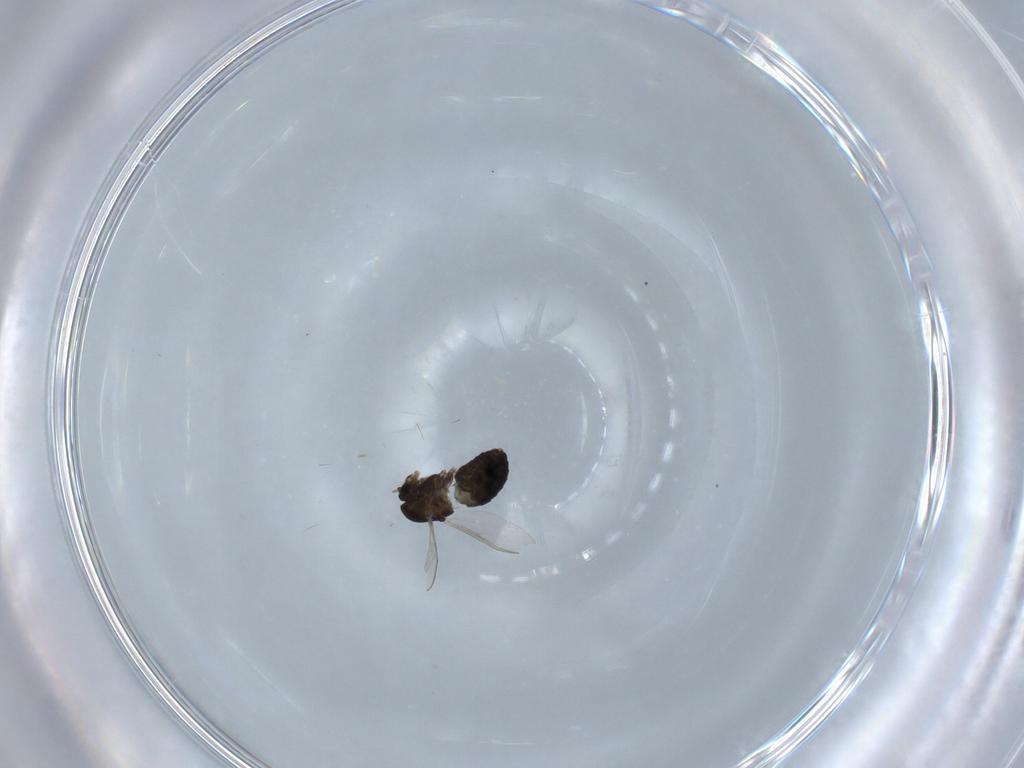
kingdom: Animalia
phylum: Arthropoda
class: Insecta
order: Diptera
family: Chironomidae
